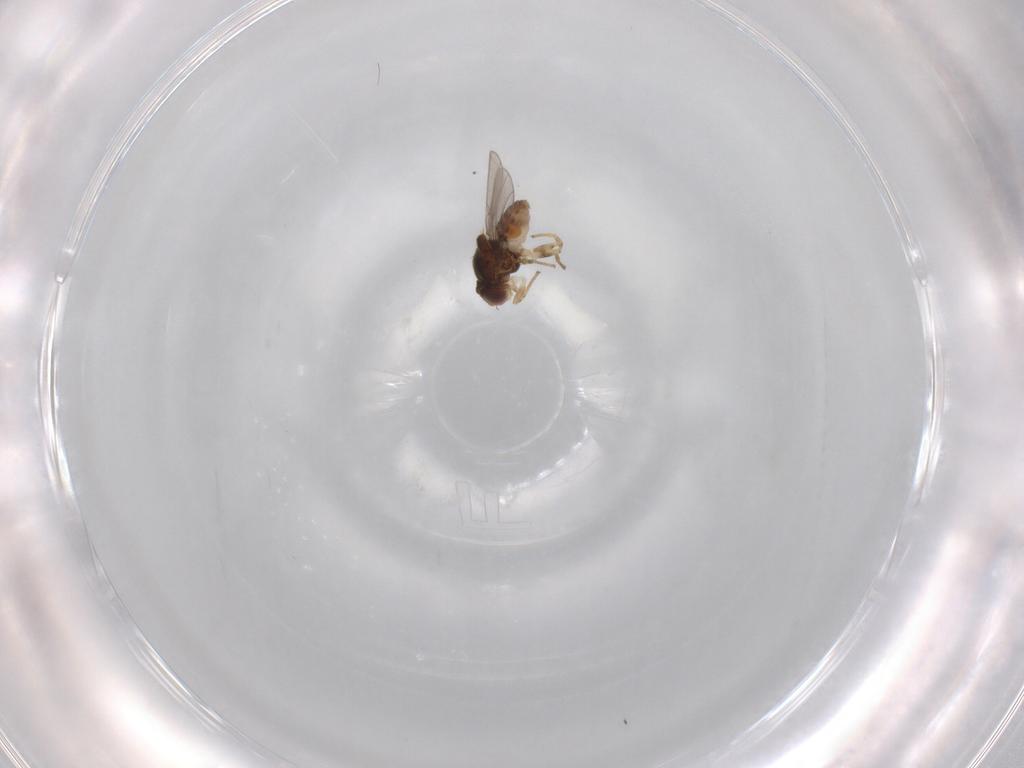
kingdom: Animalia
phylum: Arthropoda
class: Insecta
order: Diptera
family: Chloropidae
